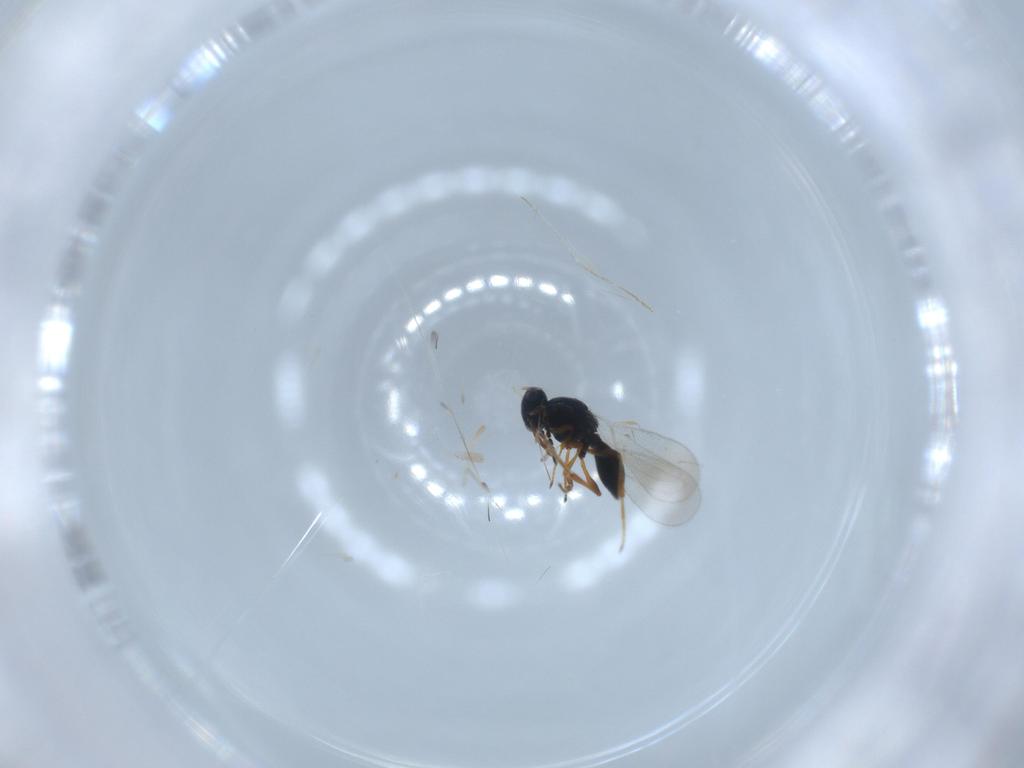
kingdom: Animalia
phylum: Arthropoda
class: Insecta
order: Hymenoptera
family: Platygastridae
